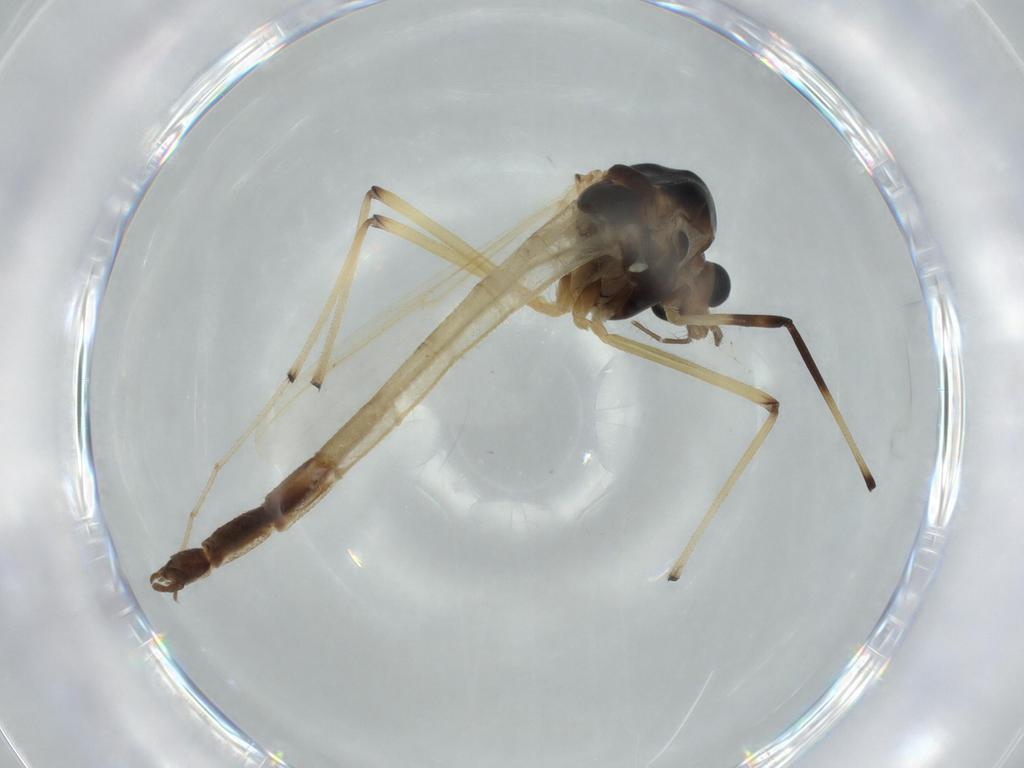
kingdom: Animalia
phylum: Arthropoda
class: Insecta
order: Diptera
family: Chironomidae
